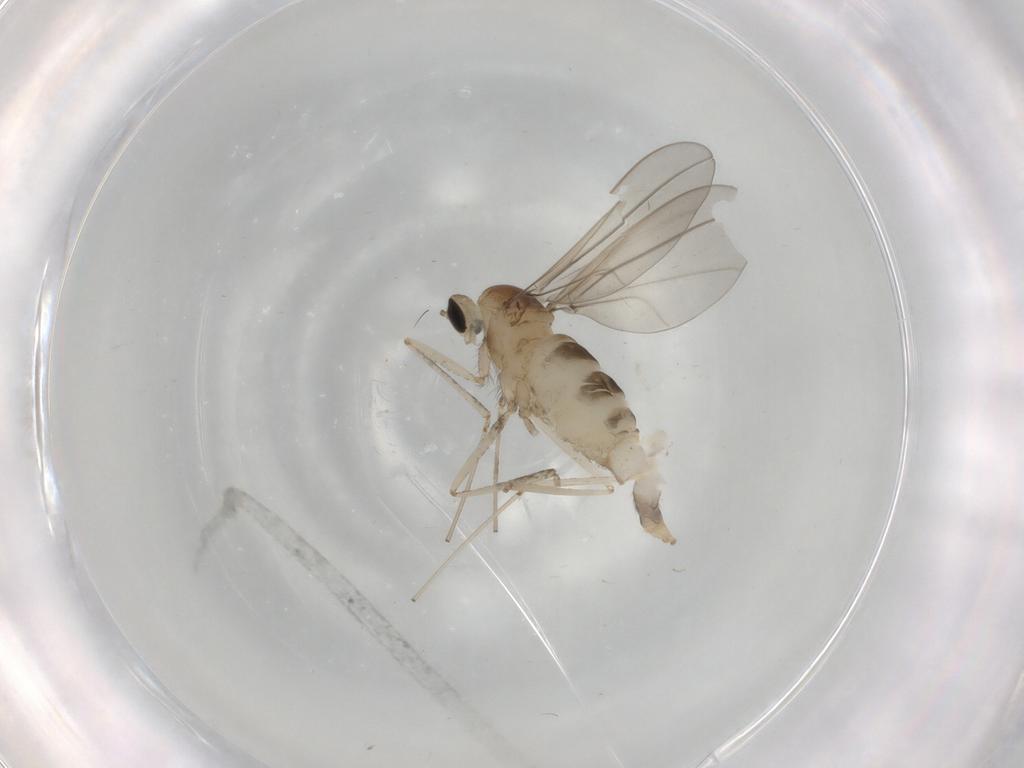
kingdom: Animalia
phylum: Arthropoda
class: Insecta
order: Diptera
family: Cecidomyiidae
